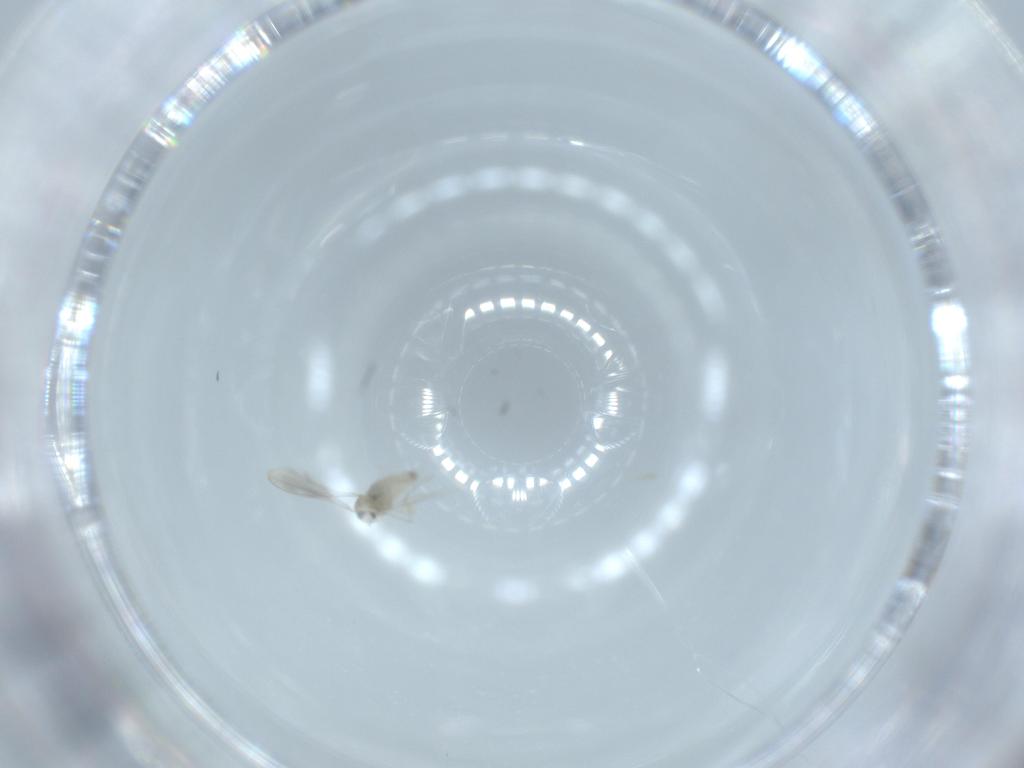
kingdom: Animalia
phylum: Arthropoda
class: Insecta
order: Diptera
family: Cecidomyiidae
